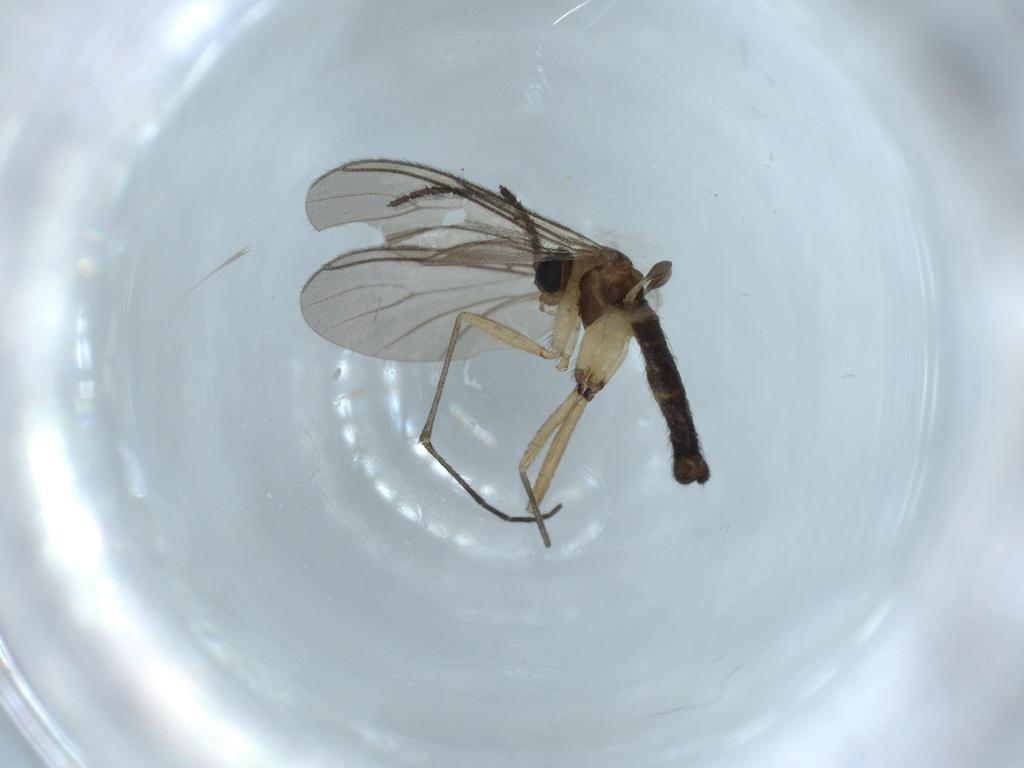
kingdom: Animalia
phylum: Arthropoda
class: Insecta
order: Diptera
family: Sciaridae
